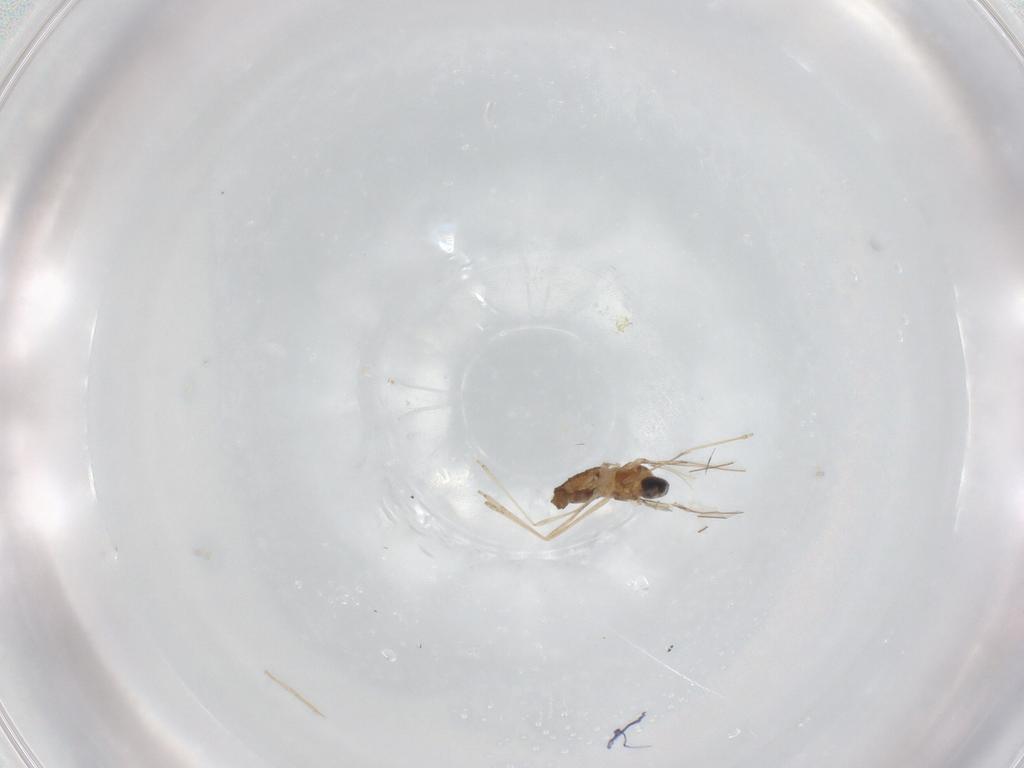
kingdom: Animalia
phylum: Arthropoda
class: Insecta
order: Diptera
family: Cecidomyiidae
